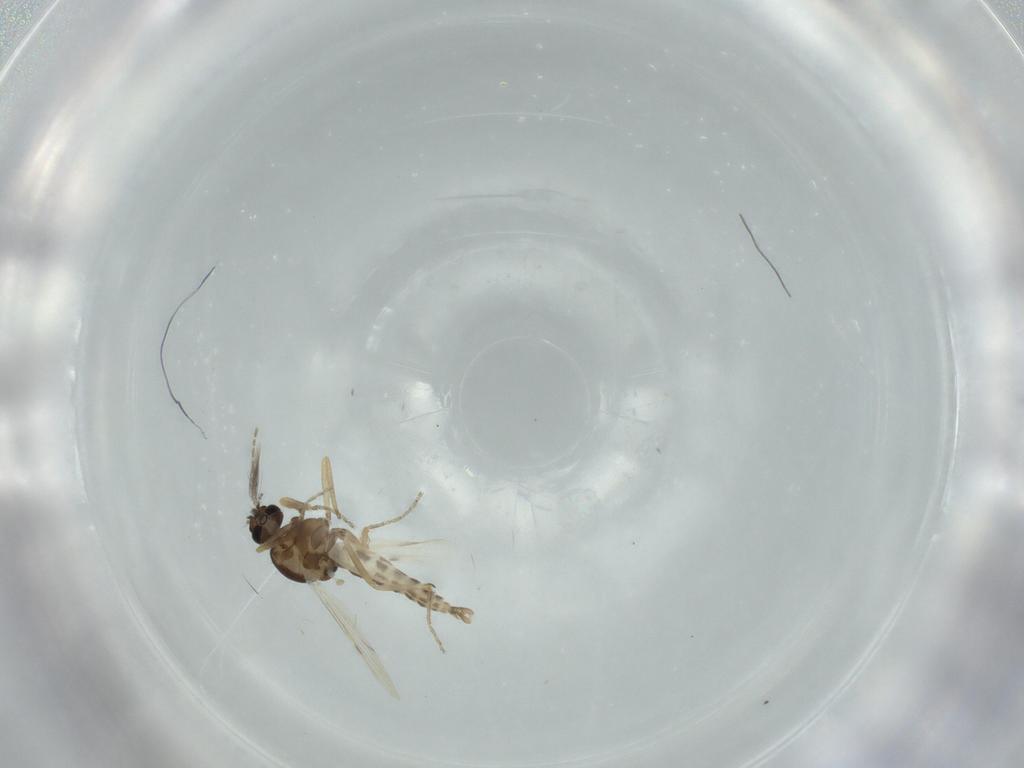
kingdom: Animalia
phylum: Arthropoda
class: Insecta
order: Diptera
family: Ceratopogonidae
